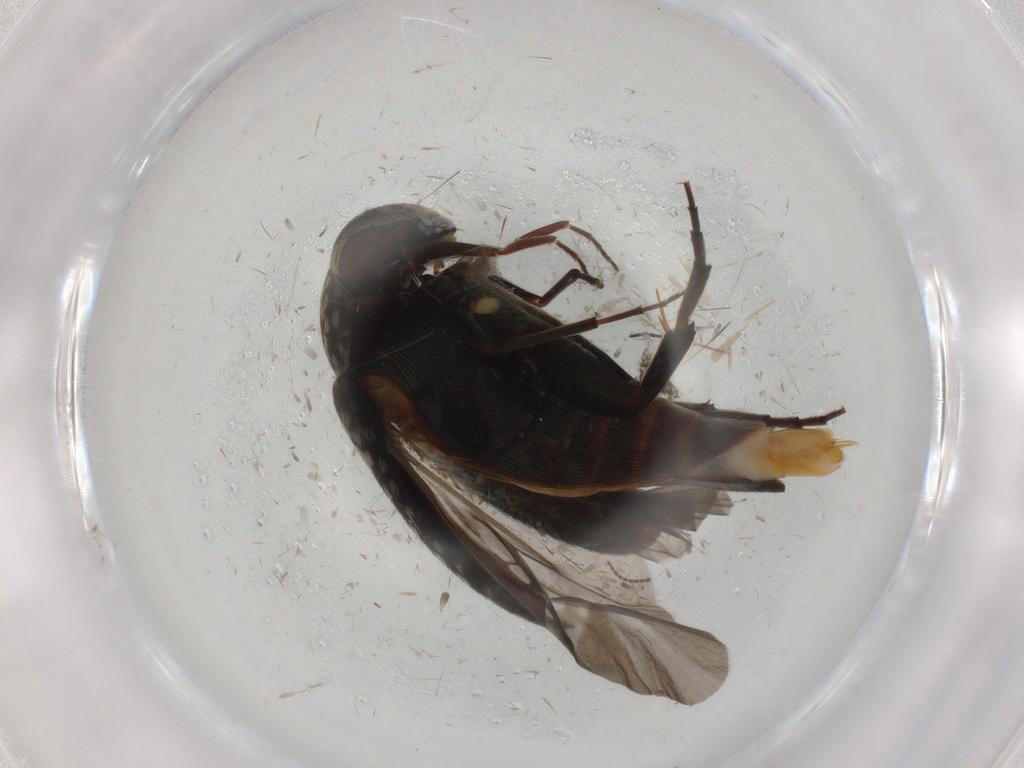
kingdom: Animalia
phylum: Arthropoda
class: Insecta
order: Coleoptera
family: Mordellidae
